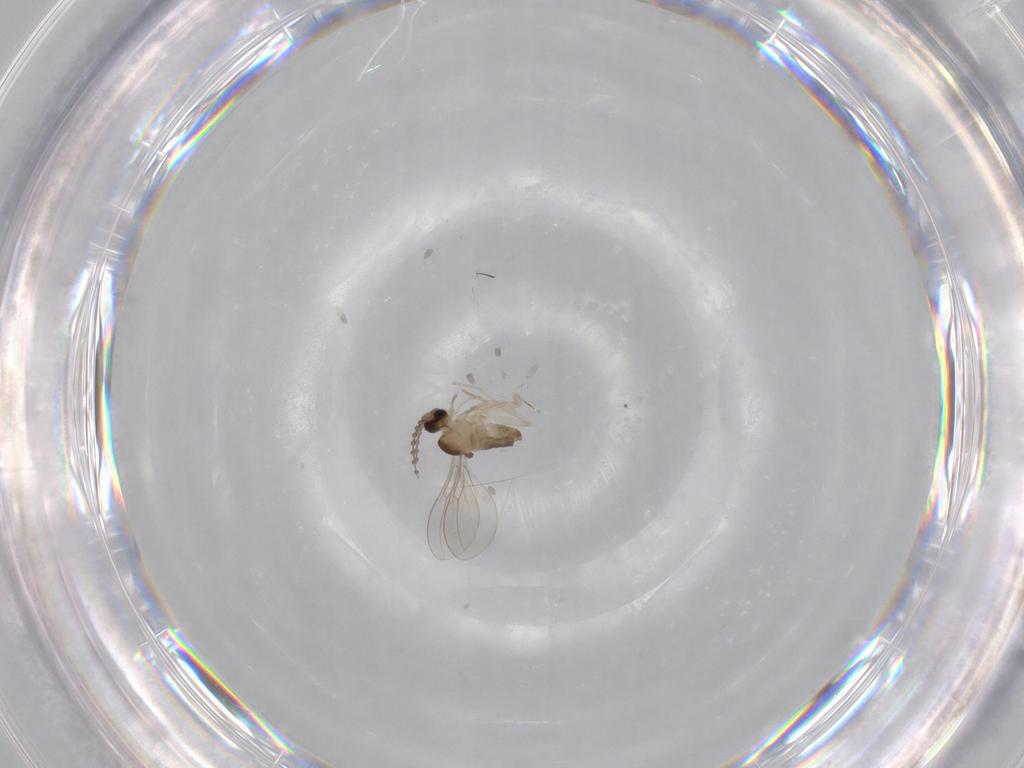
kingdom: Animalia
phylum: Arthropoda
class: Insecta
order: Diptera
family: Cecidomyiidae
